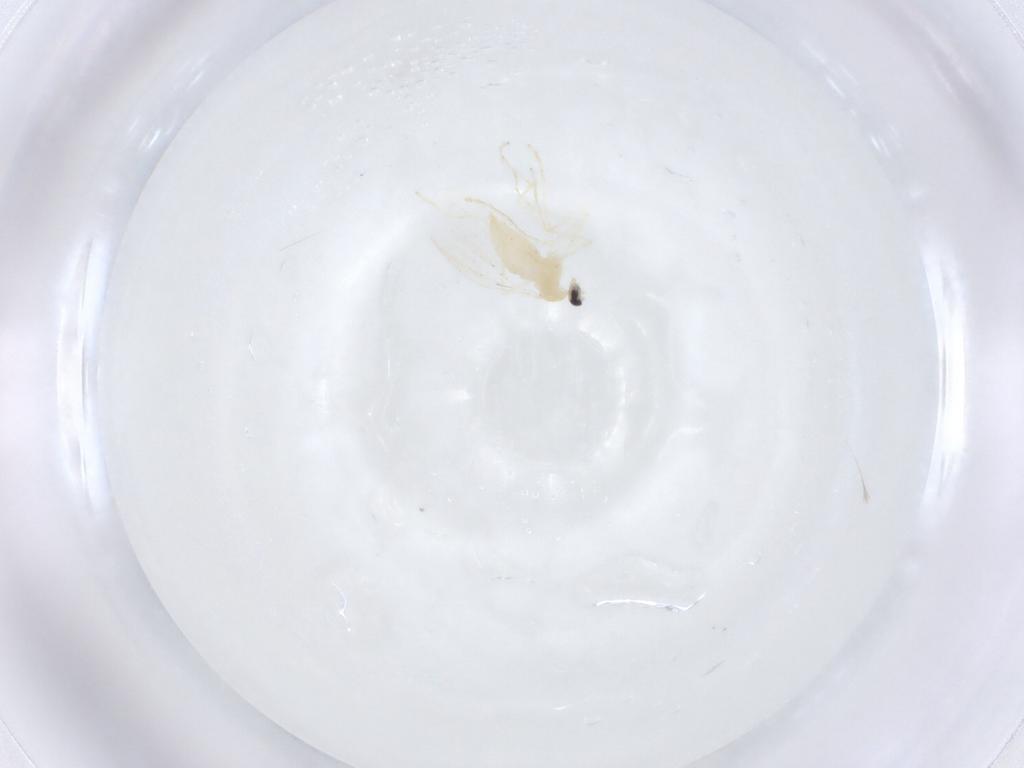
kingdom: Animalia
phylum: Arthropoda
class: Insecta
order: Diptera
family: Cecidomyiidae
